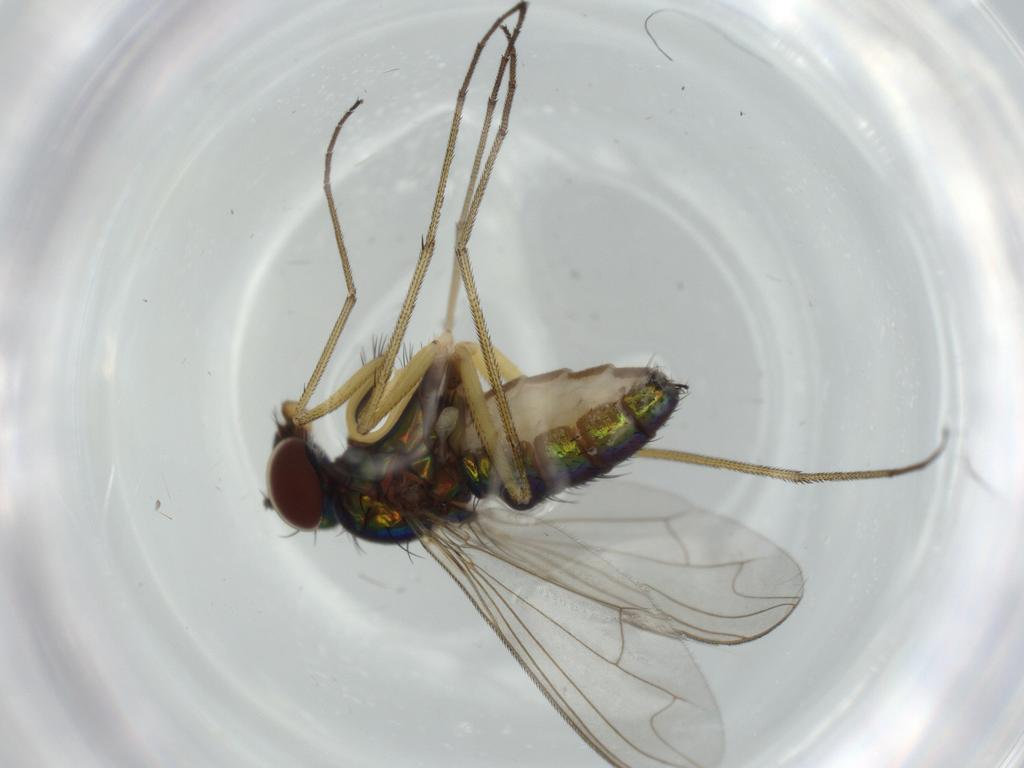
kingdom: Animalia
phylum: Arthropoda
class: Insecta
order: Diptera
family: Dolichopodidae
